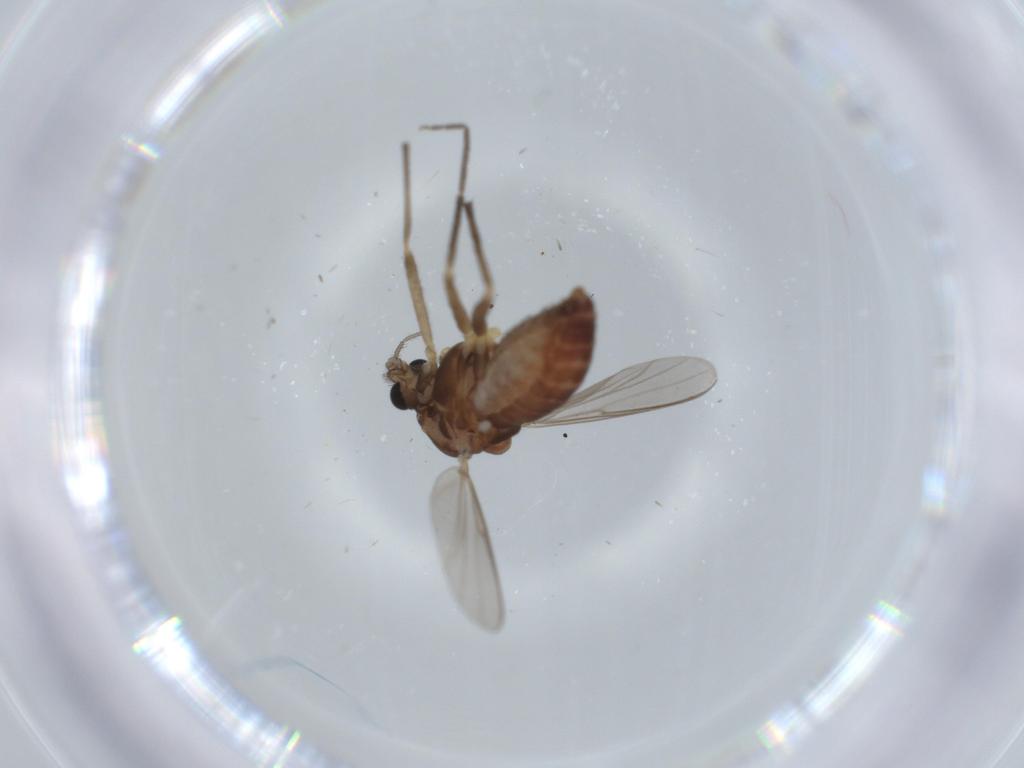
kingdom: Animalia
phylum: Arthropoda
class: Insecta
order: Diptera
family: Chironomidae
